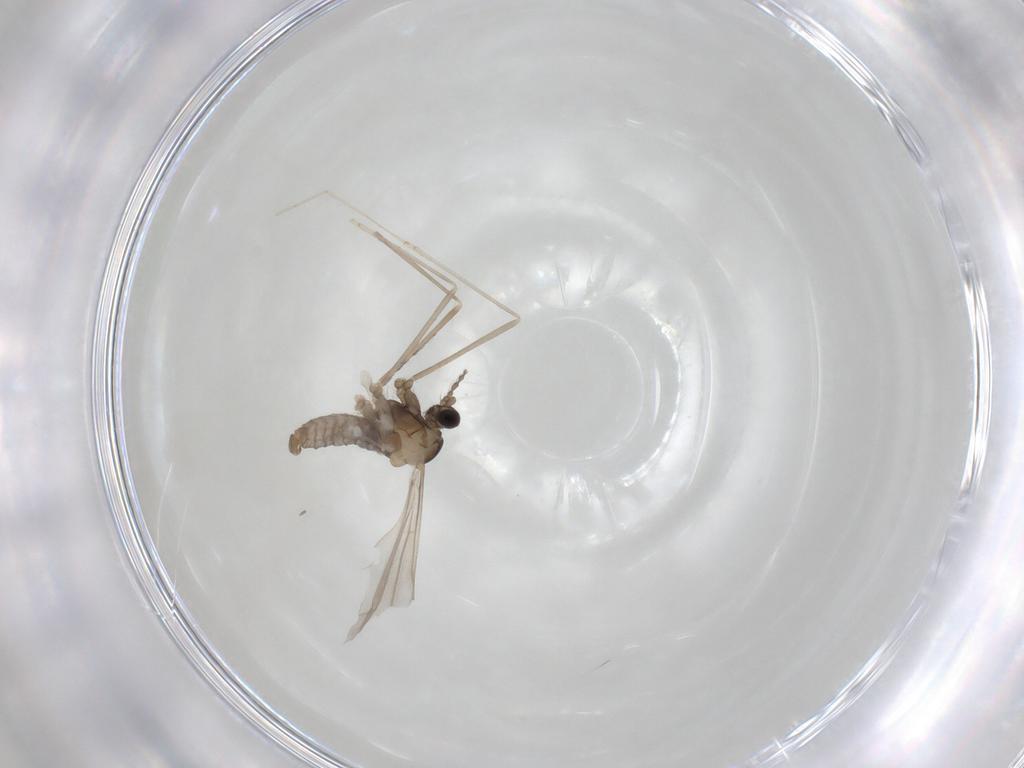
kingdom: Animalia
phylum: Arthropoda
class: Insecta
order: Diptera
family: Cecidomyiidae
